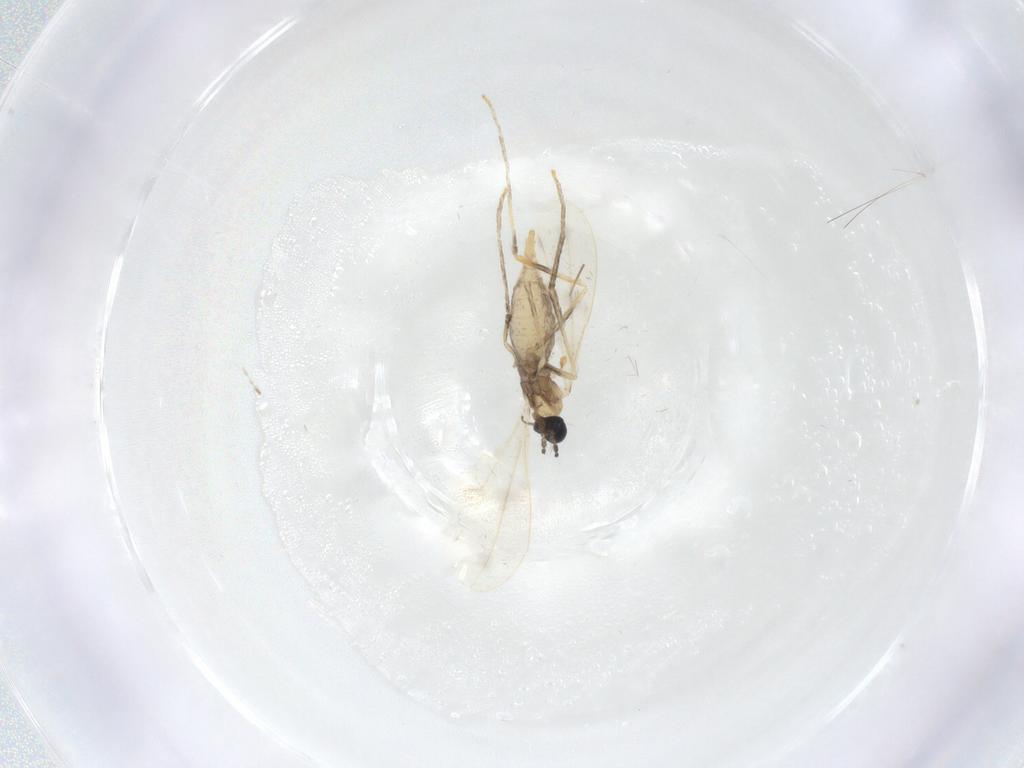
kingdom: Animalia
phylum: Arthropoda
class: Insecta
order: Diptera
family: Cecidomyiidae
